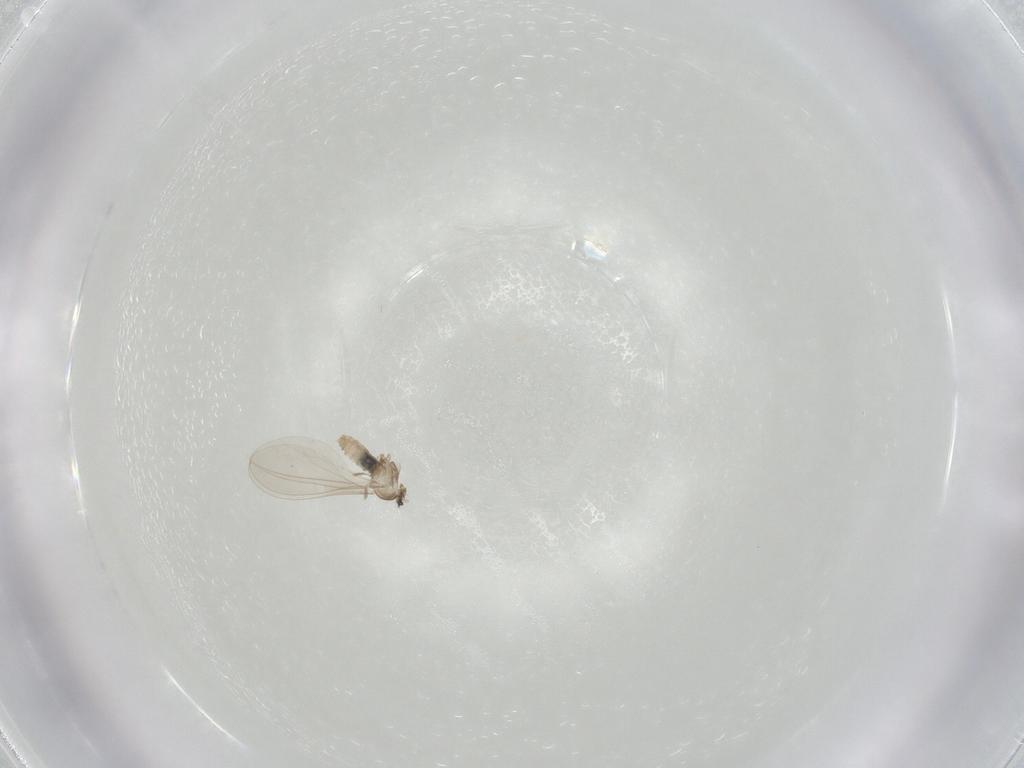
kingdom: Animalia
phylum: Arthropoda
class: Insecta
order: Diptera
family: Cecidomyiidae
